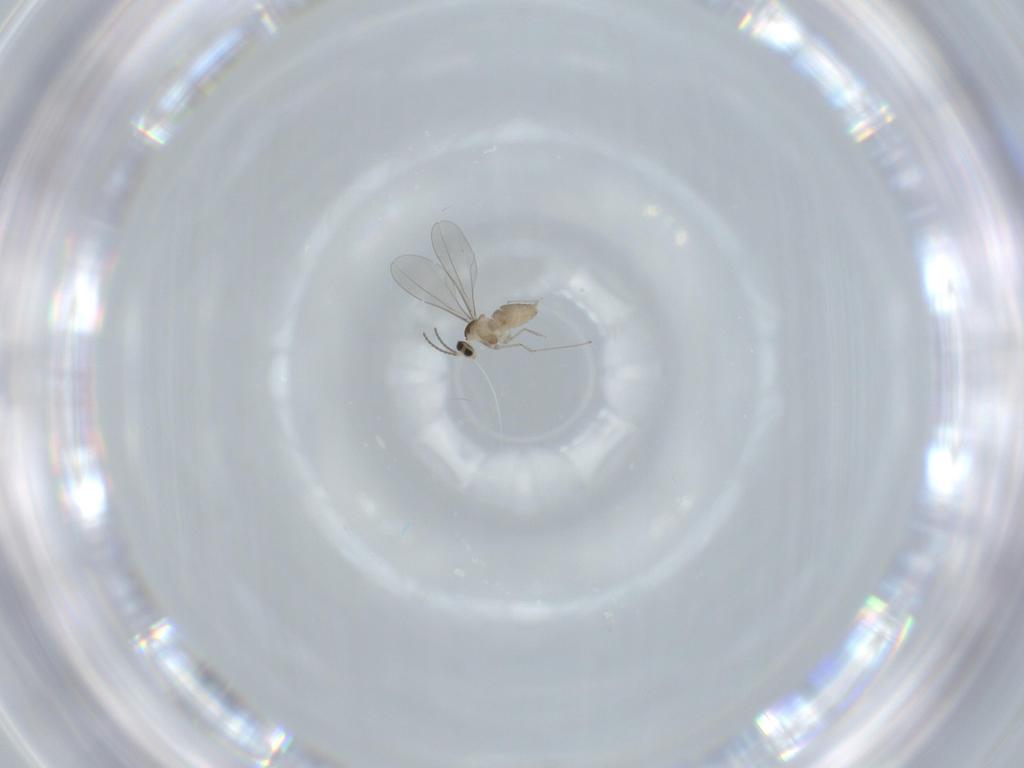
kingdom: Animalia
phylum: Arthropoda
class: Insecta
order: Diptera
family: Cecidomyiidae
